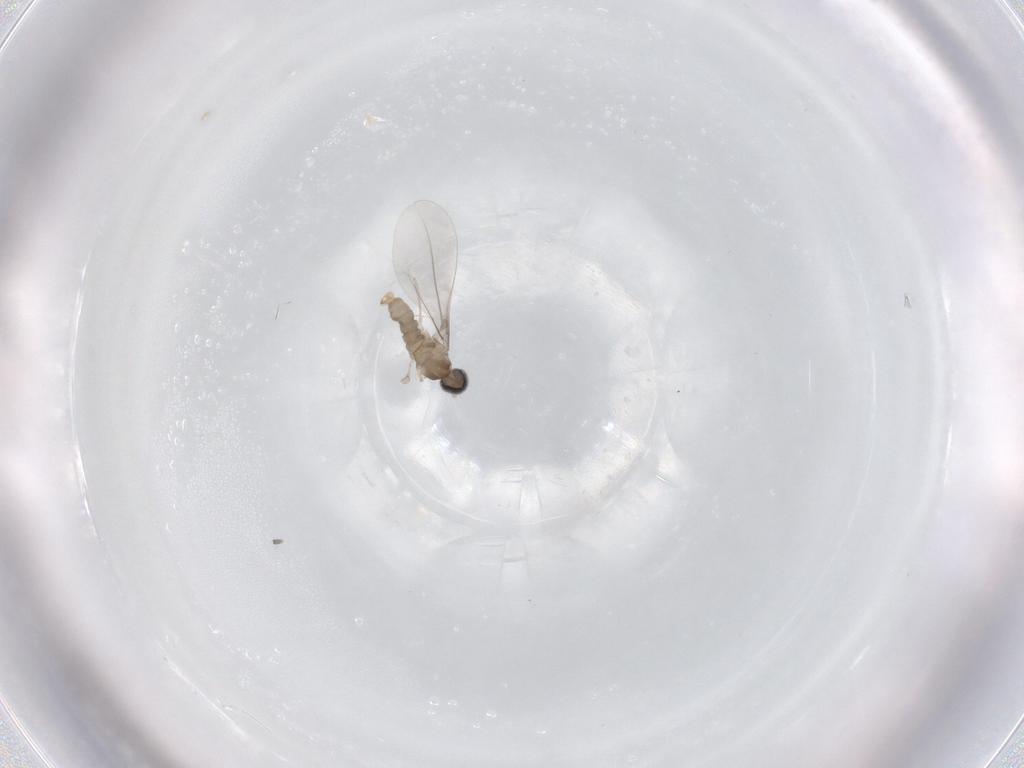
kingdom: Animalia
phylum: Arthropoda
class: Insecta
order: Diptera
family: Cecidomyiidae
